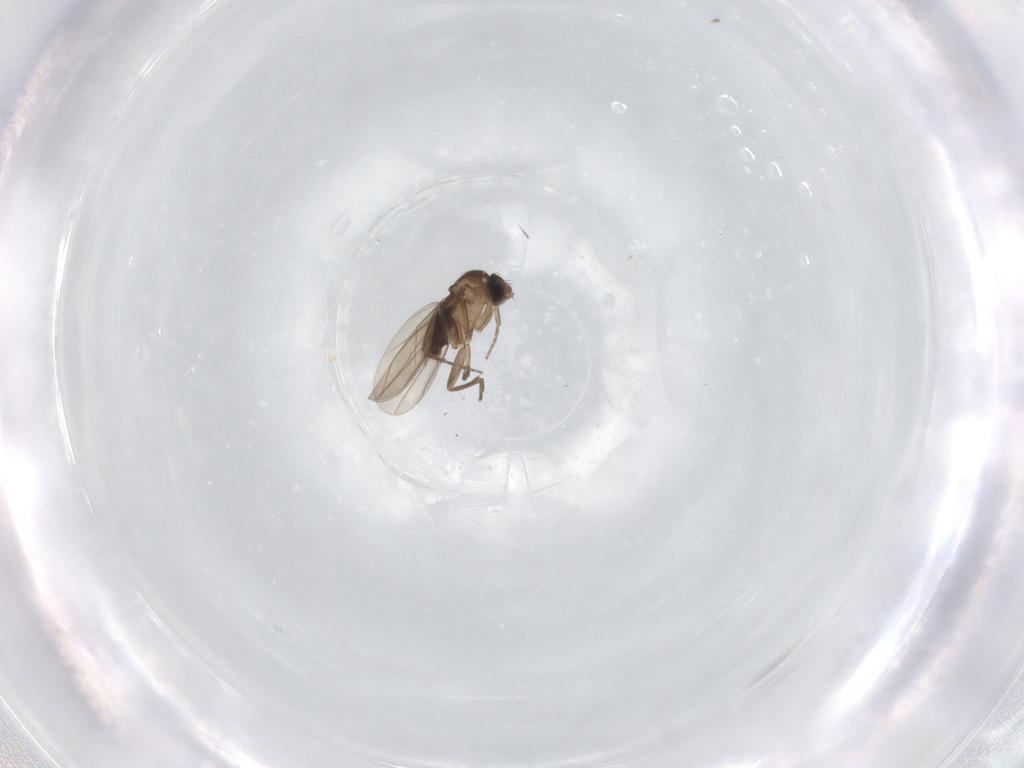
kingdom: Animalia
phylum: Arthropoda
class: Insecta
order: Diptera
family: Phoridae
